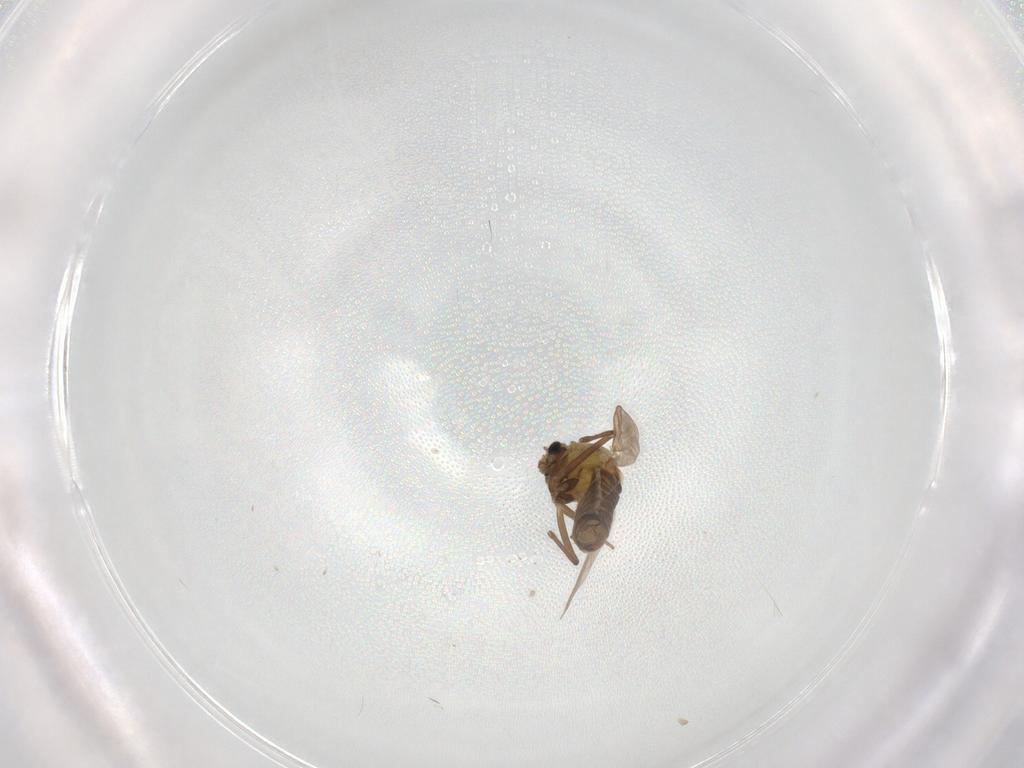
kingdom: Animalia
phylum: Arthropoda
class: Insecta
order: Diptera
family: Chironomidae
